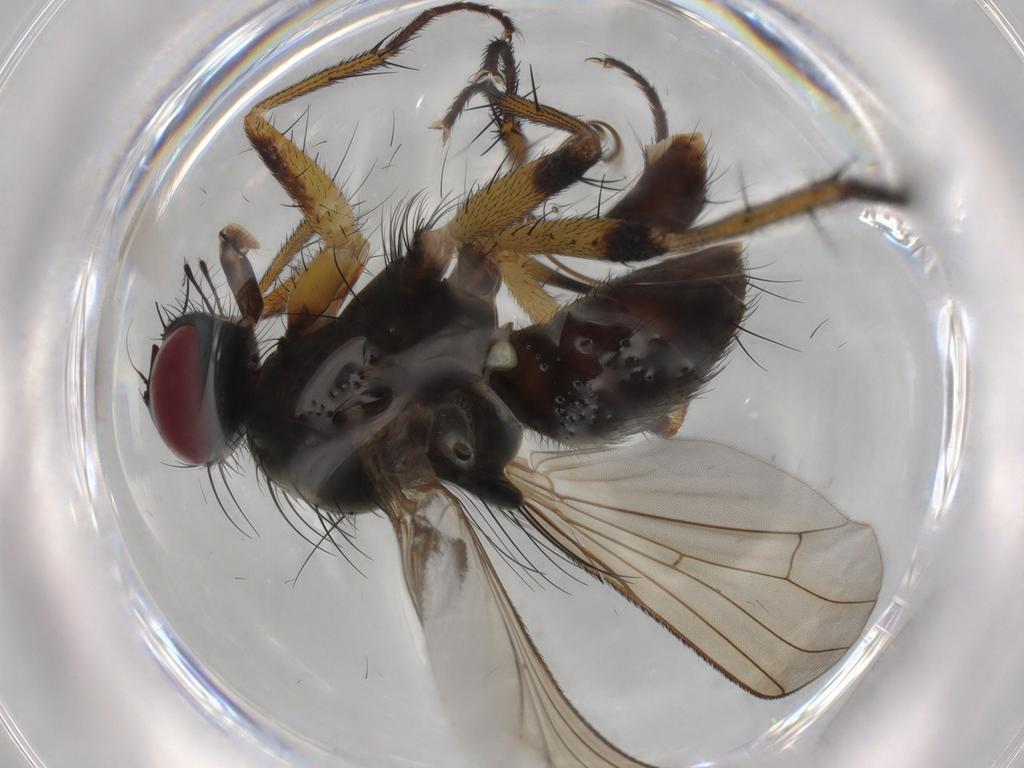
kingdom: Animalia
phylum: Arthropoda
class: Insecta
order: Diptera
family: Muscidae
